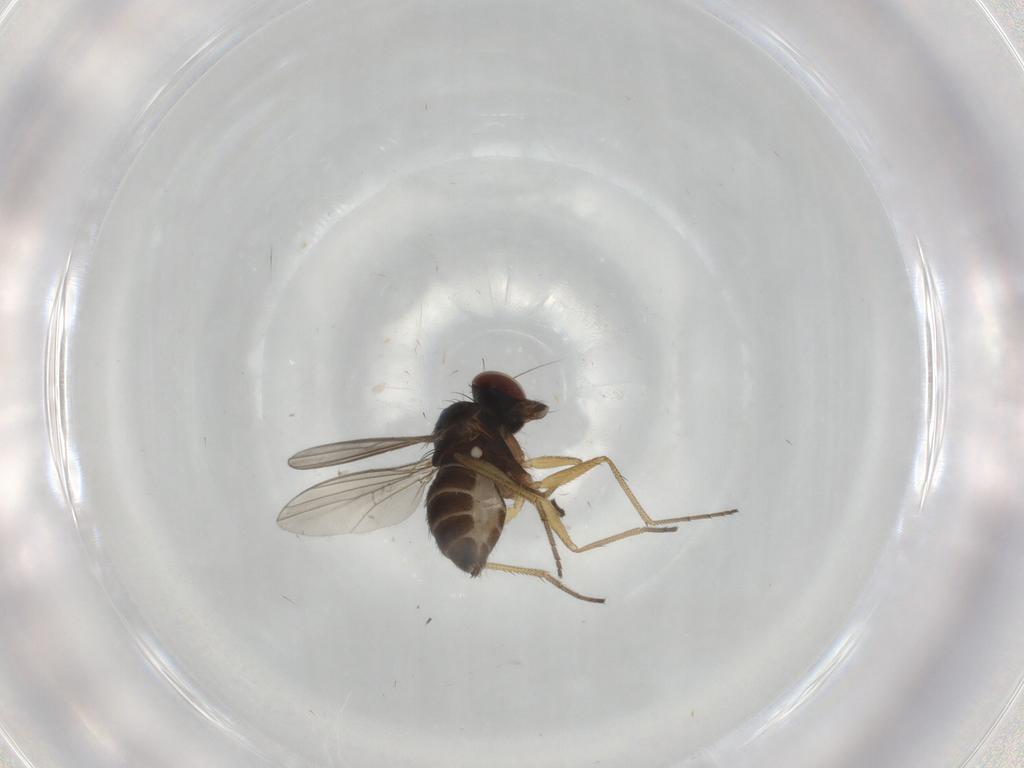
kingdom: Animalia
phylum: Arthropoda
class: Insecta
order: Diptera
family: Dolichopodidae
